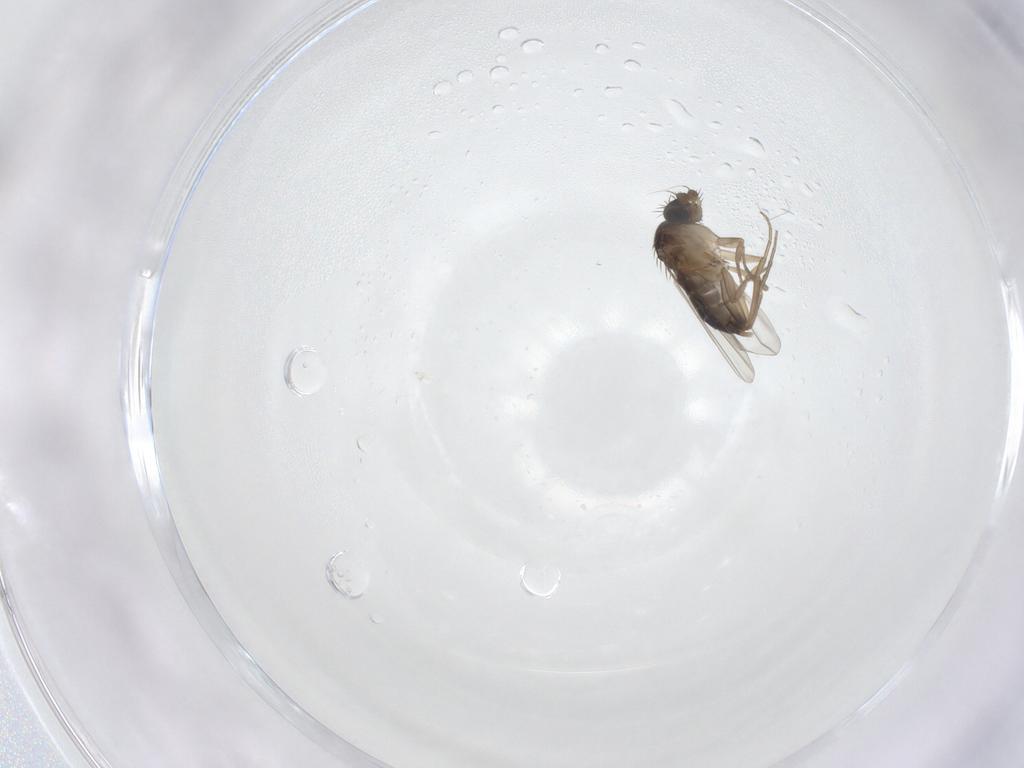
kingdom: Animalia
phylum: Arthropoda
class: Insecta
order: Diptera
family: Phoridae
